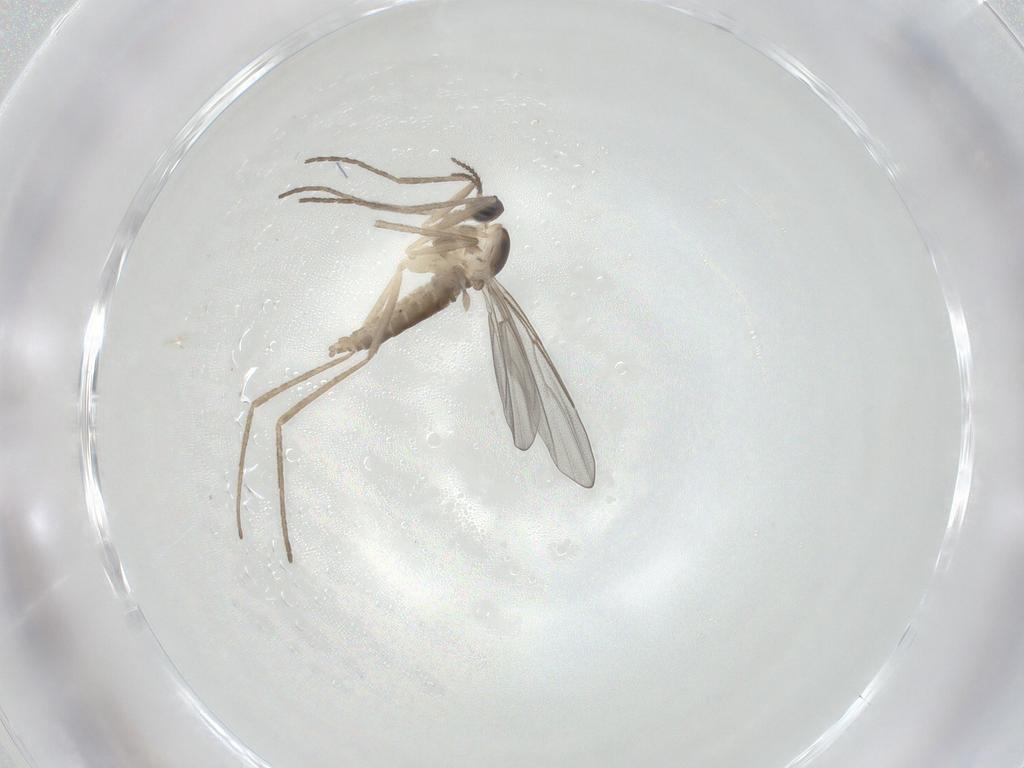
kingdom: Animalia
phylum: Arthropoda
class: Insecta
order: Diptera
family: Cecidomyiidae
